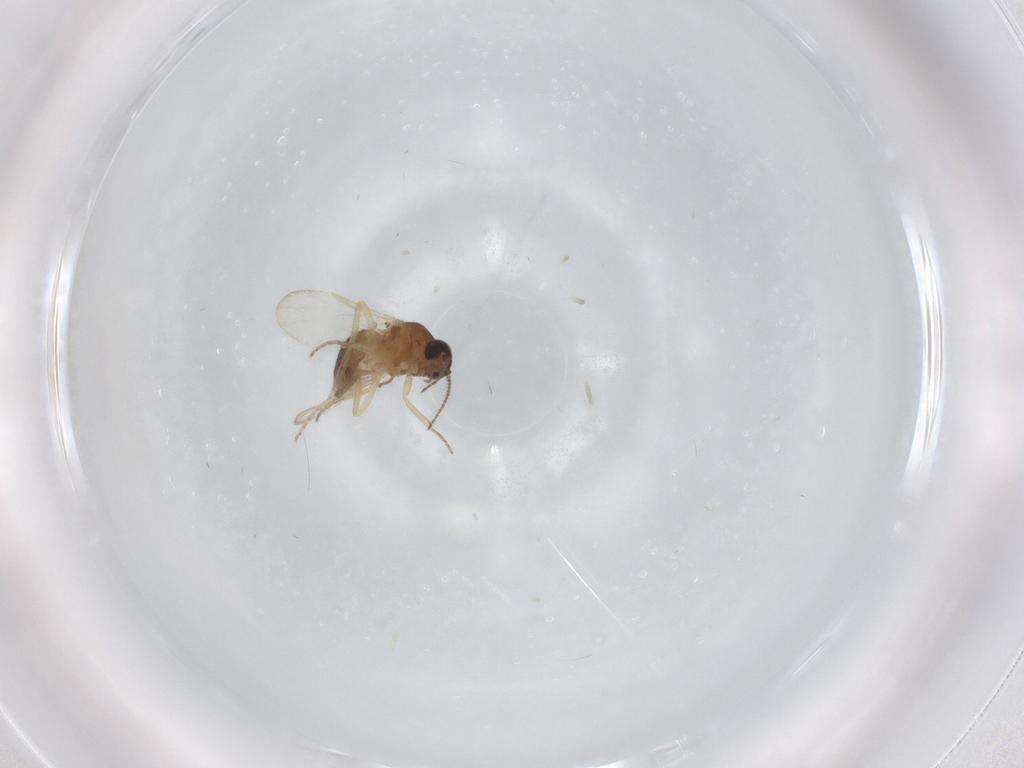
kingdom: Animalia
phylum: Arthropoda
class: Insecta
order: Diptera
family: Ceratopogonidae
